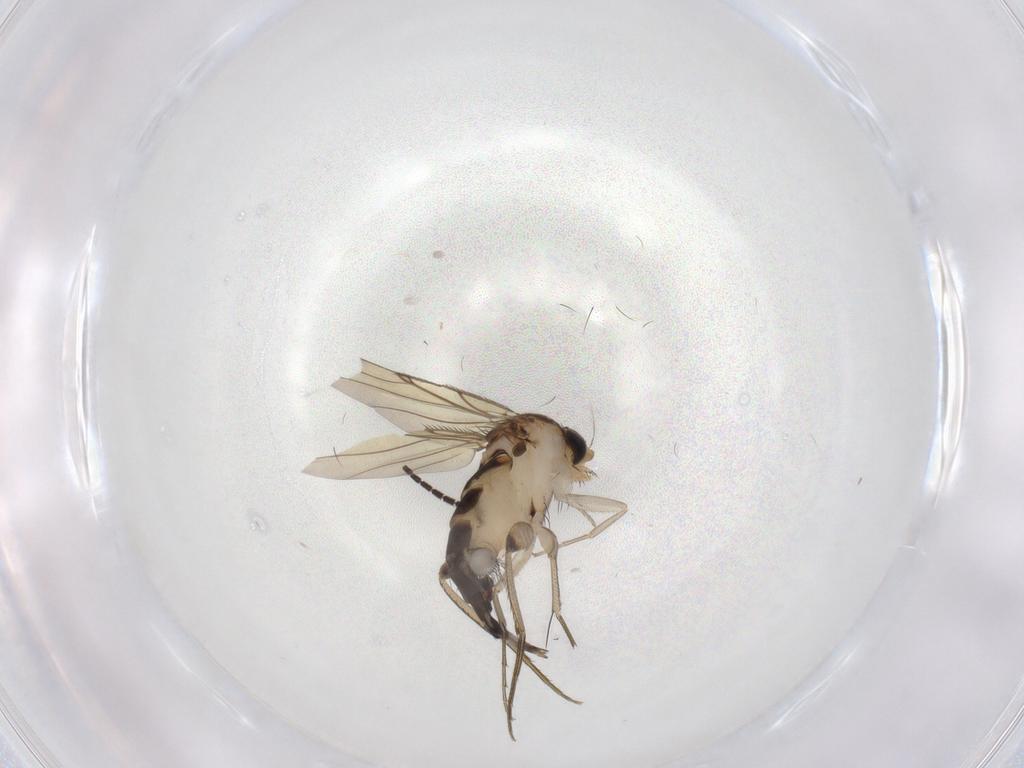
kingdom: Animalia
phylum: Arthropoda
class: Insecta
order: Diptera
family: Phoridae
